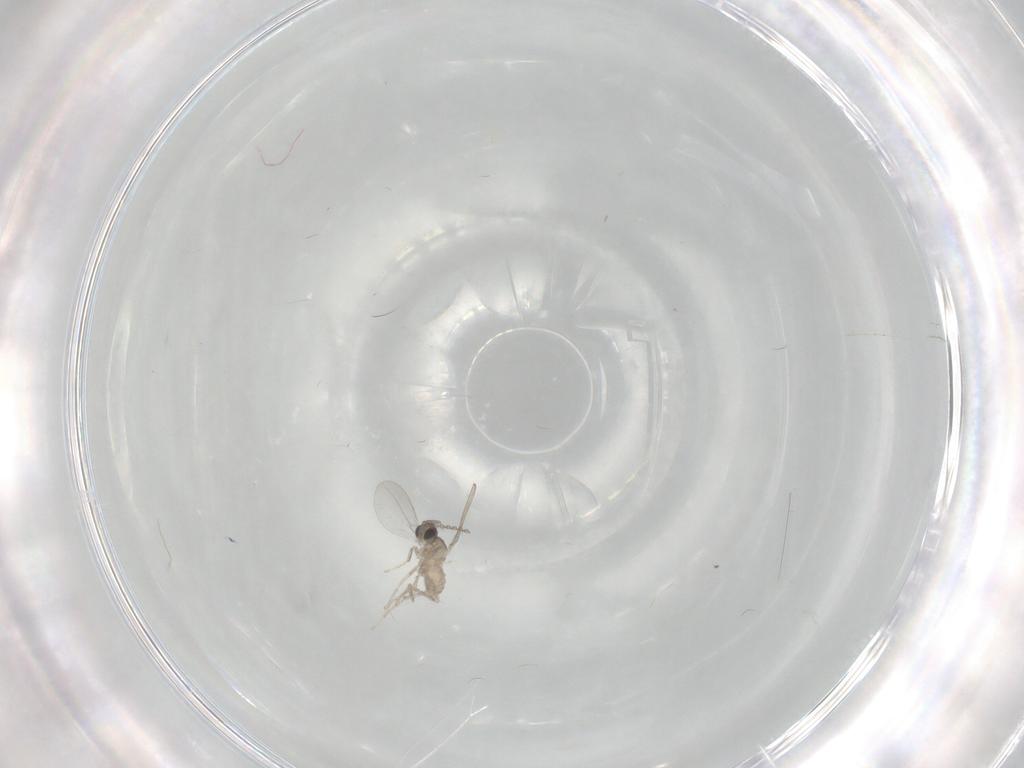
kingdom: Animalia
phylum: Arthropoda
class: Insecta
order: Diptera
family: Cecidomyiidae
